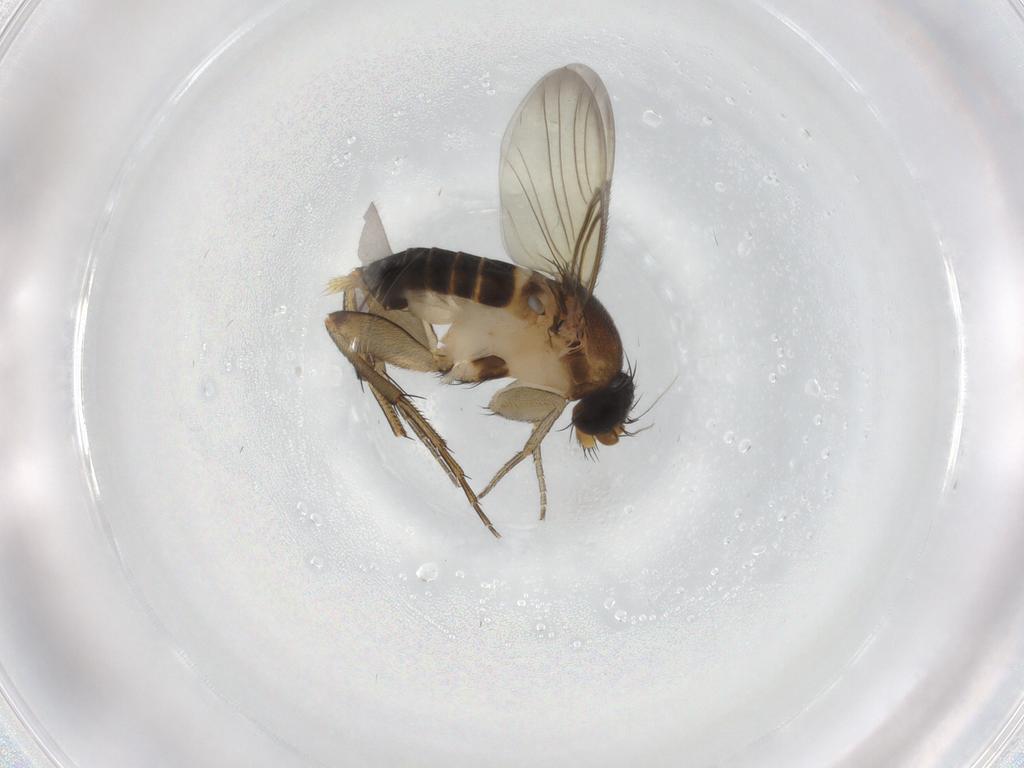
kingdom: Animalia
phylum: Arthropoda
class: Insecta
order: Diptera
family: Phoridae
